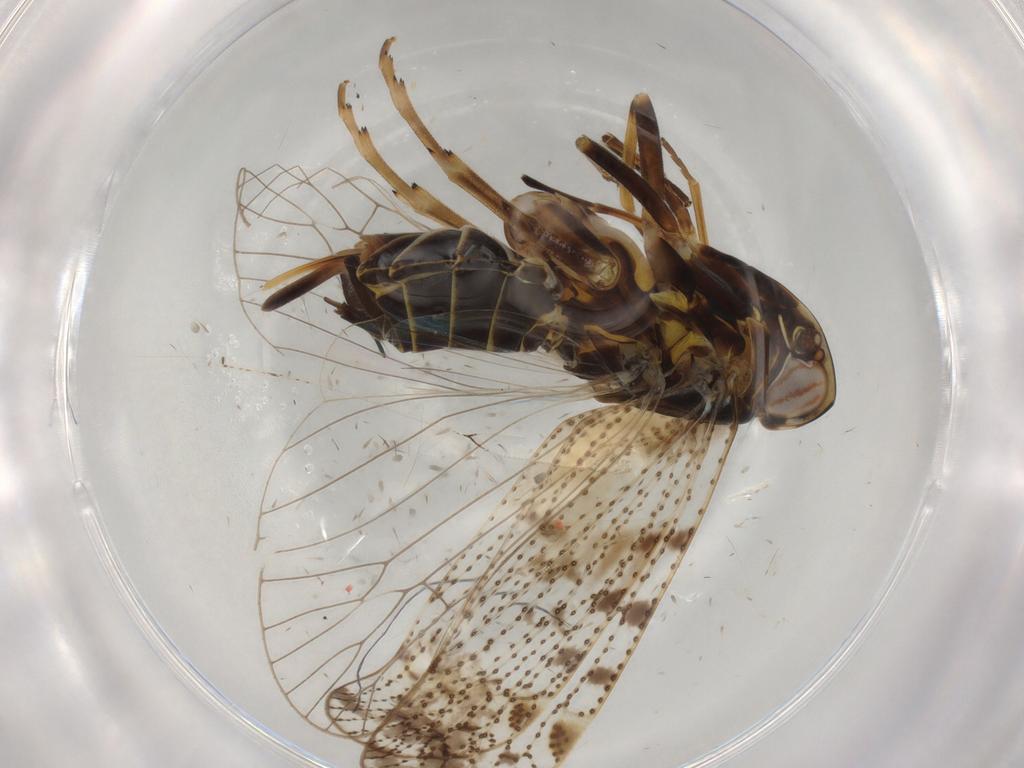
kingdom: Animalia
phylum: Arthropoda
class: Insecta
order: Hemiptera
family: Cixiidae
